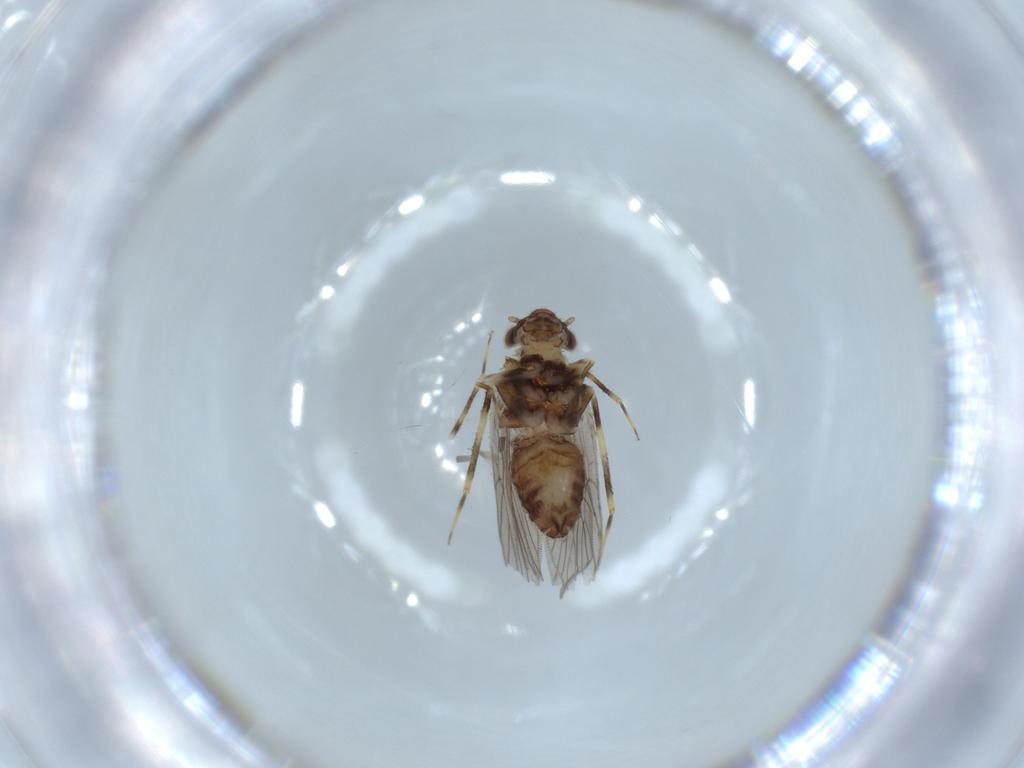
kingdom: Animalia
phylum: Arthropoda
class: Insecta
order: Psocodea
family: Lepidopsocidae
